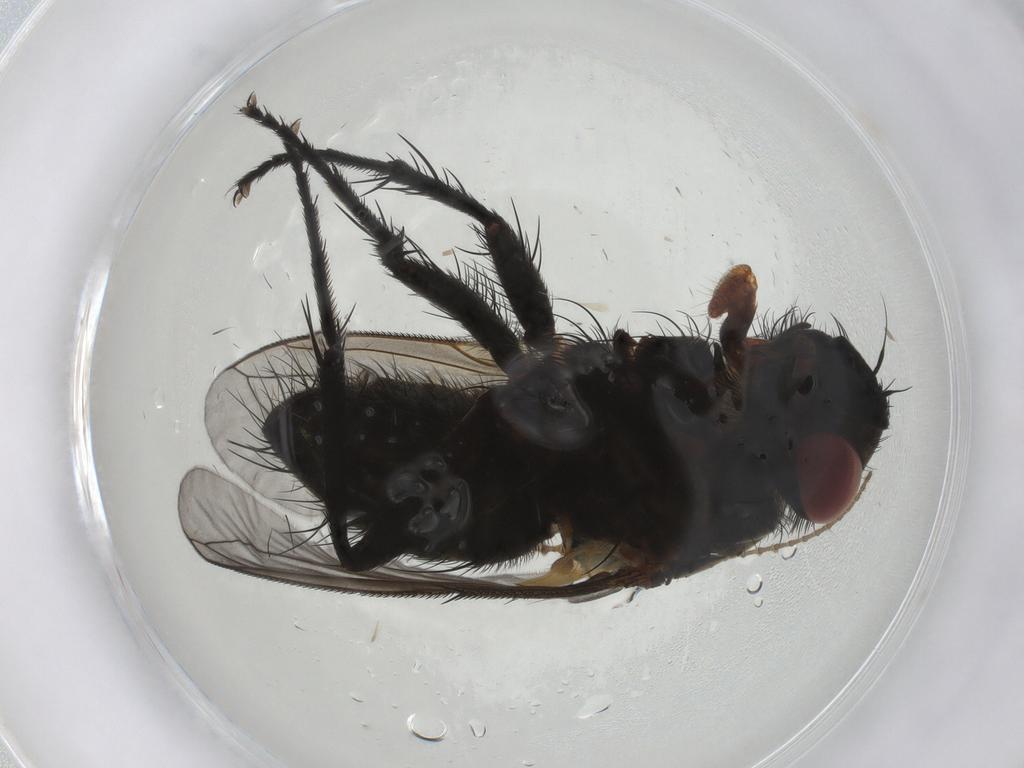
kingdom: Animalia
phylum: Arthropoda
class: Insecta
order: Diptera
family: Tachinidae
